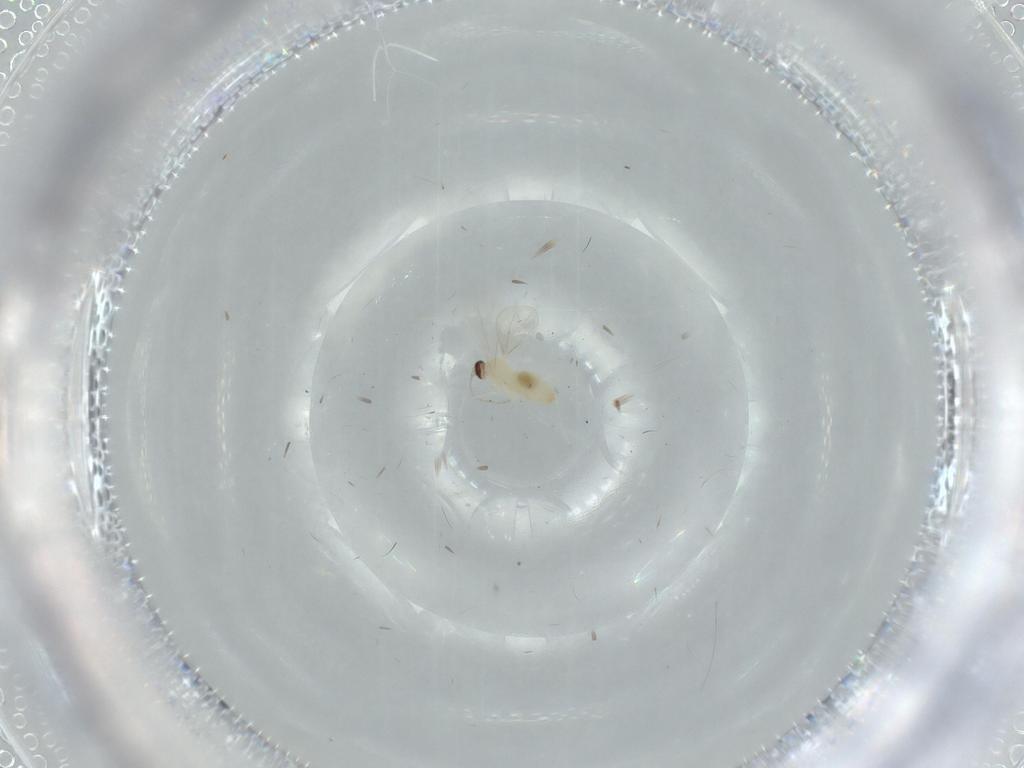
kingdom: Animalia
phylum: Arthropoda
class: Insecta
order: Diptera
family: Cecidomyiidae
